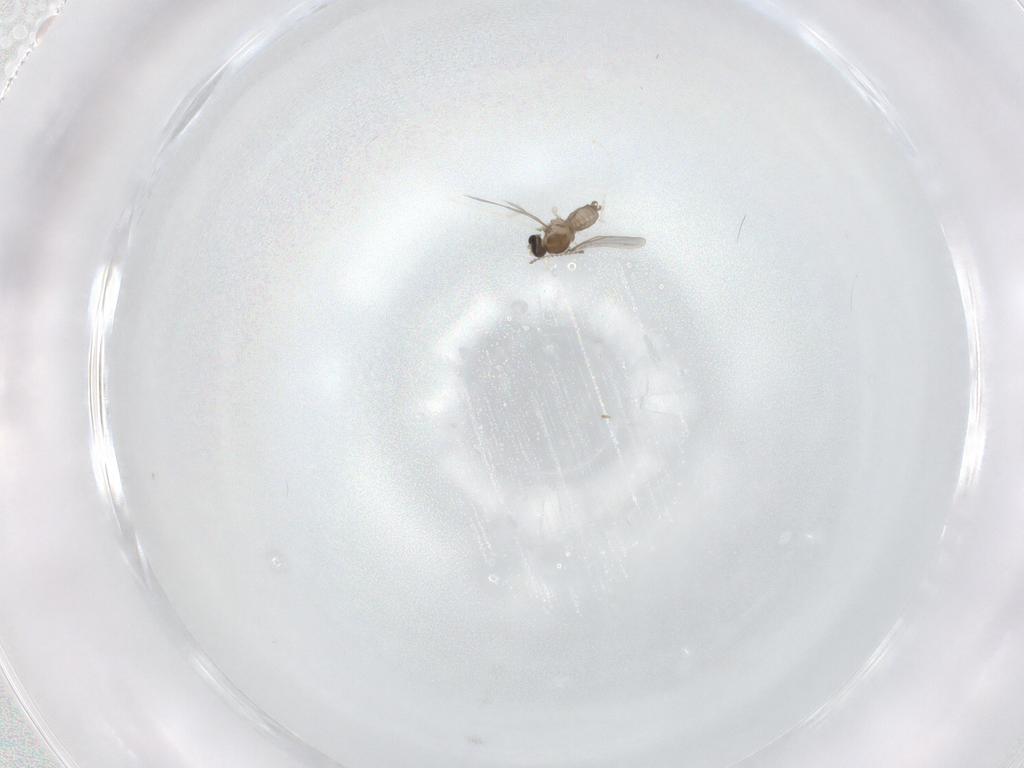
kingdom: Animalia
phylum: Arthropoda
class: Insecta
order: Diptera
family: Cecidomyiidae
